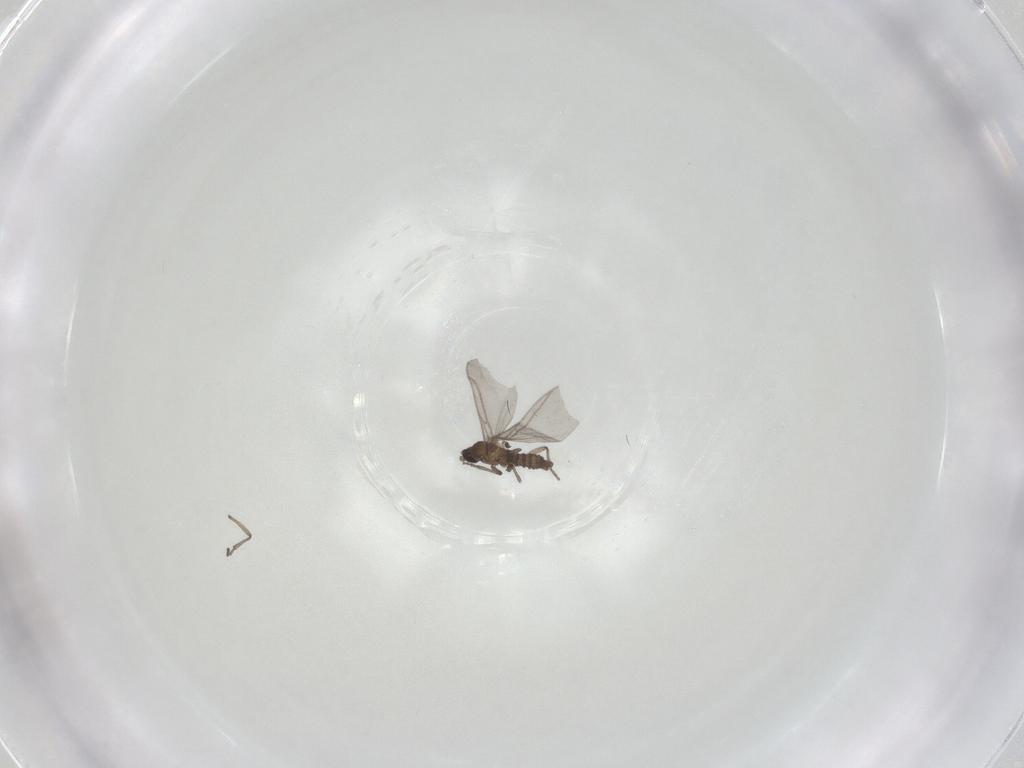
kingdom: Animalia
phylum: Arthropoda
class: Insecta
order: Diptera
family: Sciaridae
